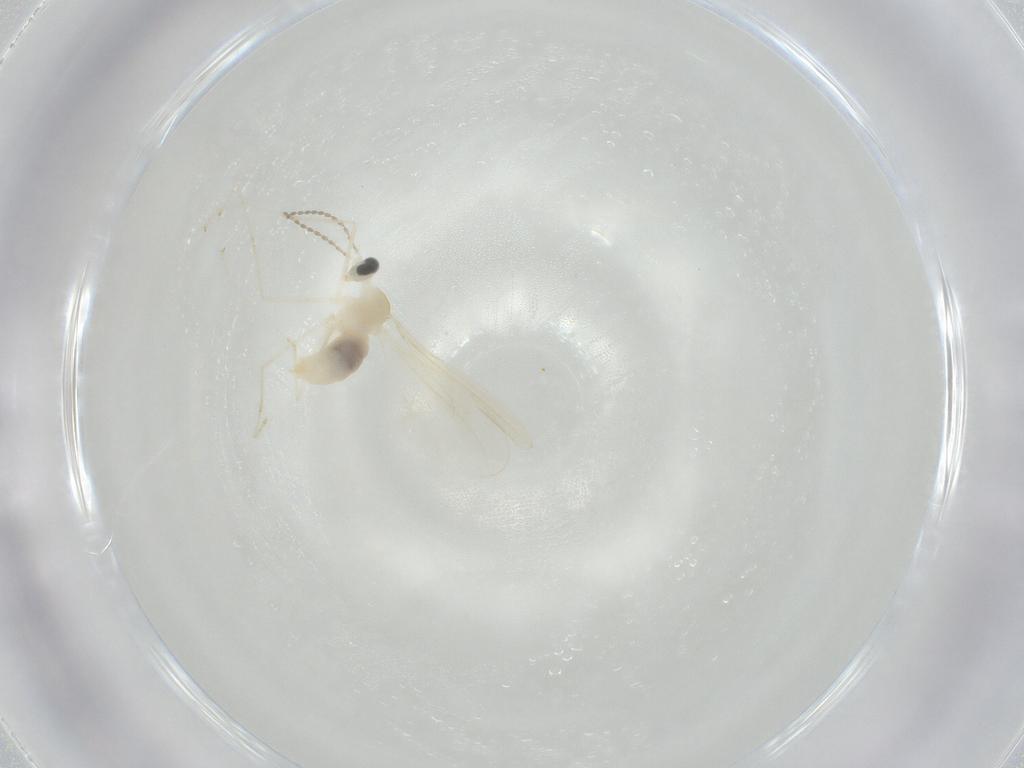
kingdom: Animalia
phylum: Arthropoda
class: Insecta
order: Diptera
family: Cecidomyiidae
